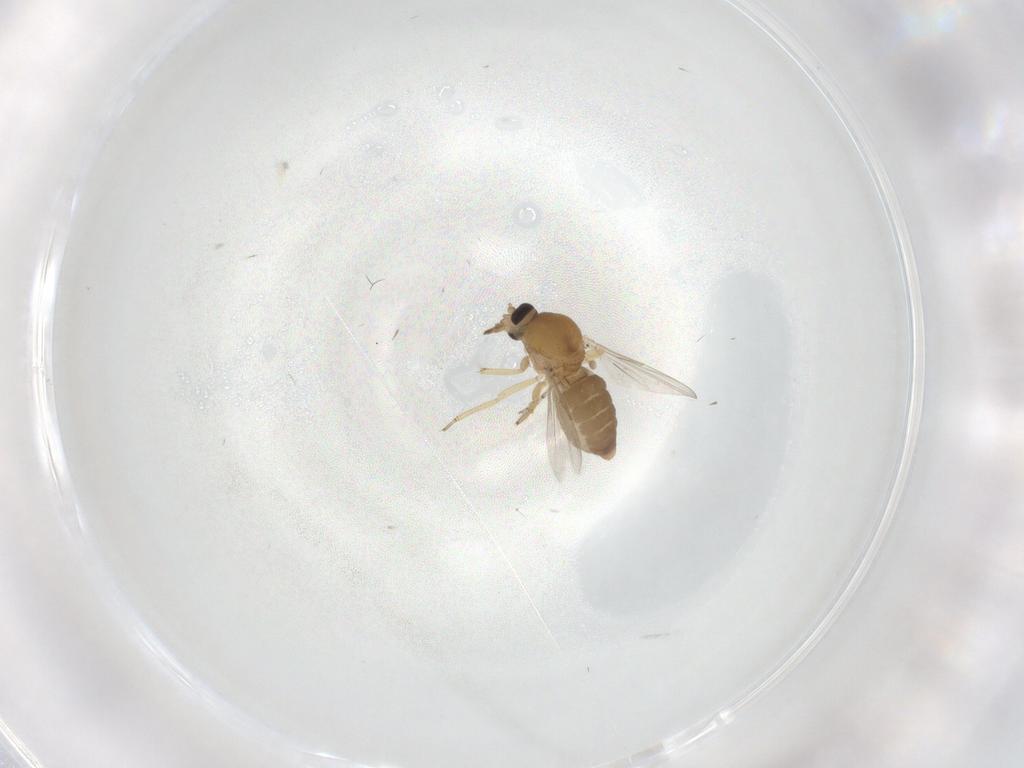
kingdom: Animalia
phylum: Arthropoda
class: Insecta
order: Diptera
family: Ceratopogonidae
